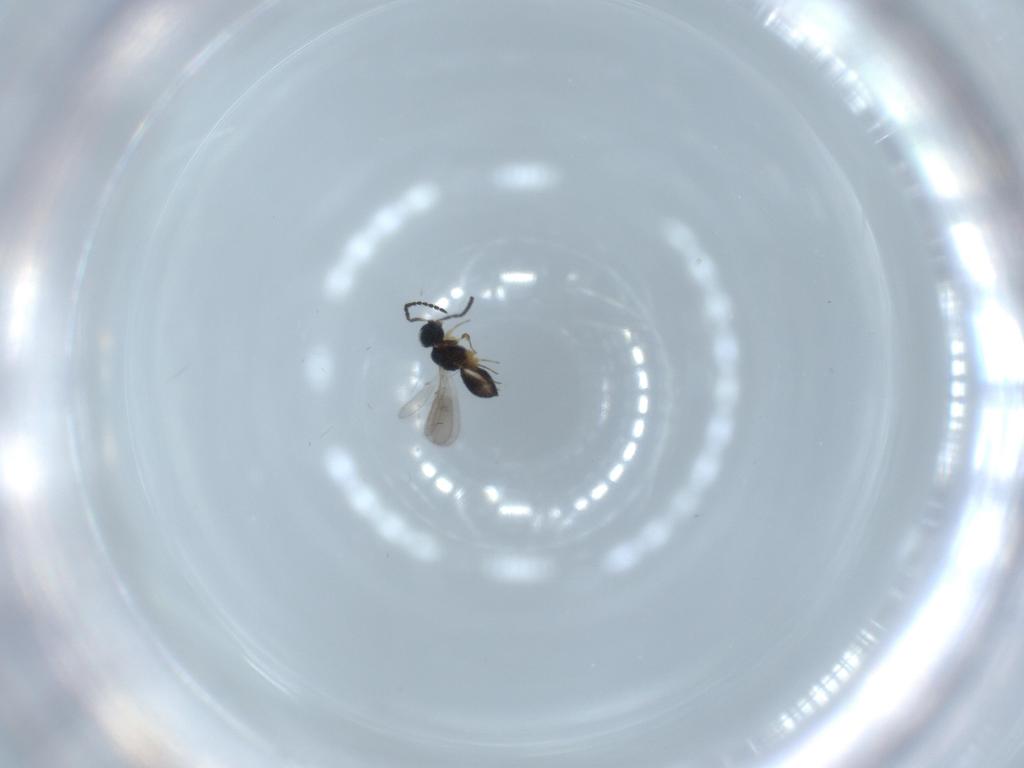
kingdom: Animalia
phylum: Arthropoda
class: Insecta
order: Hymenoptera
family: Scelionidae
